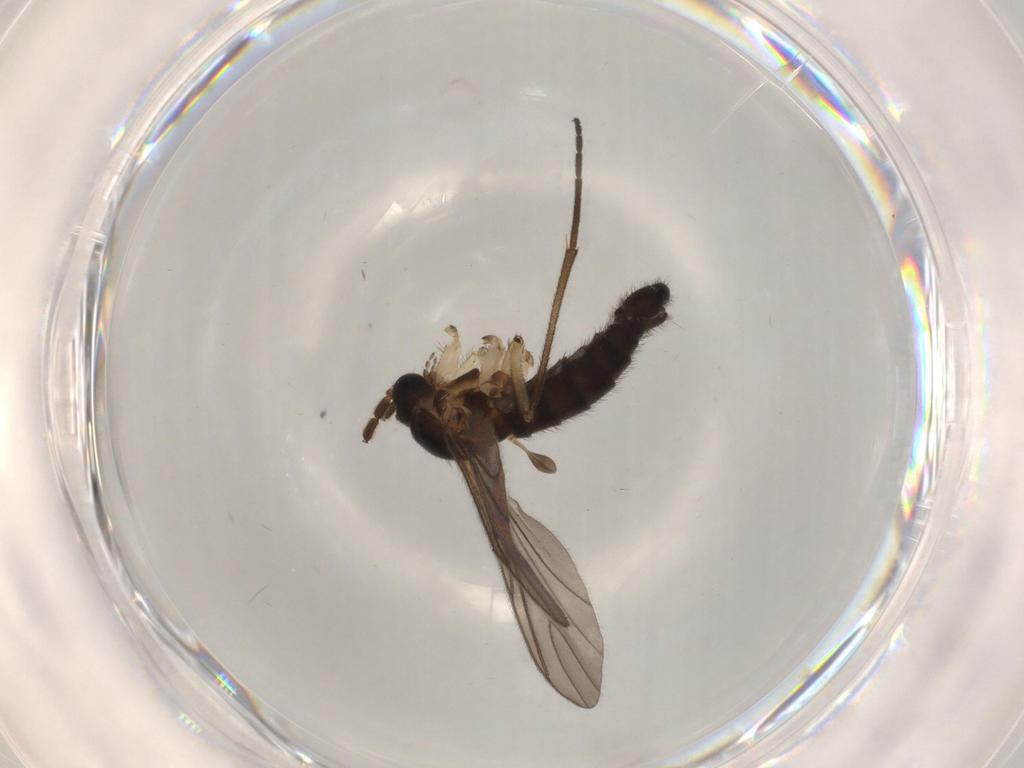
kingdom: Animalia
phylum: Arthropoda
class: Insecta
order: Diptera
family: Sciaridae
